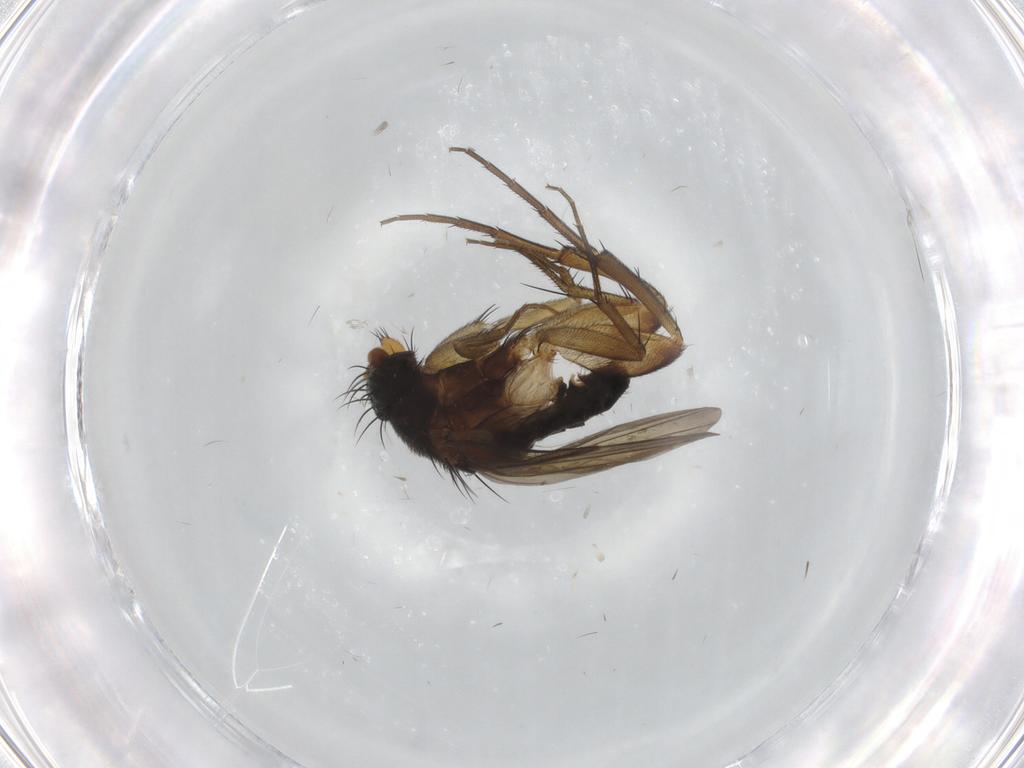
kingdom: Animalia
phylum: Arthropoda
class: Insecta
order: Diptera
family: Phoridae
